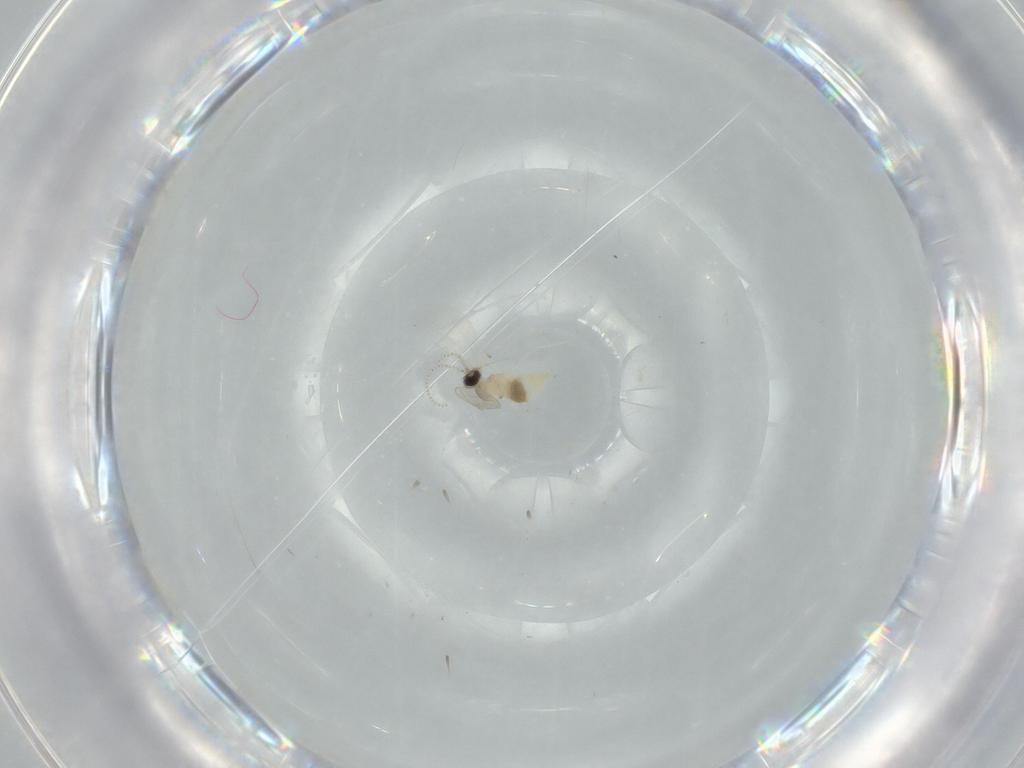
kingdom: Animalia
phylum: Arthropoda
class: Insecta
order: Diptera
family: Cecidomyiidae
